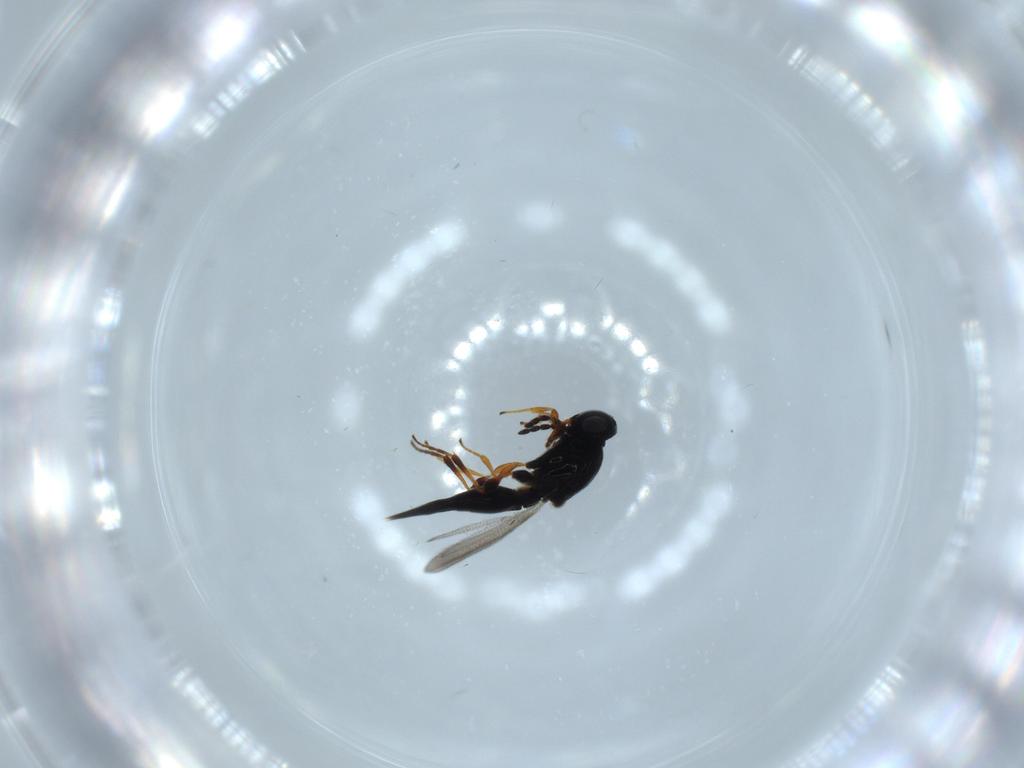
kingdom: Animalia
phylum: Arthropoda
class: Insecta
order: Hymenoptera
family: Platygastridae
